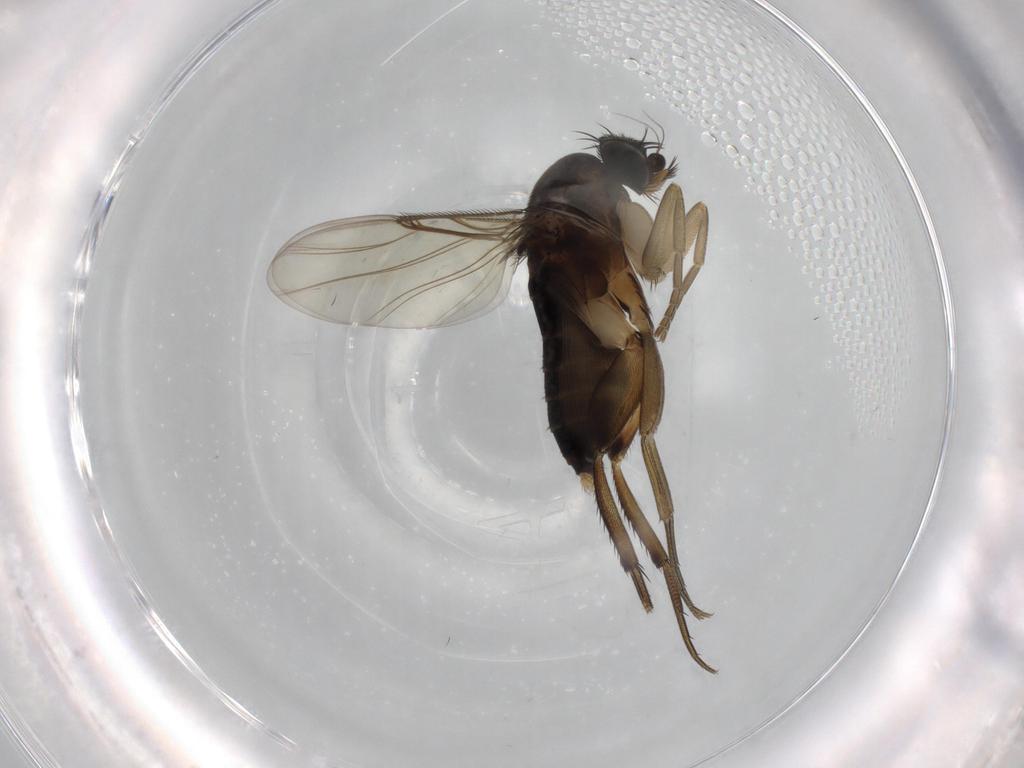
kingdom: Animalia
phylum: Arthropoda
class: Insecta
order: Diptera
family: Phoridae
